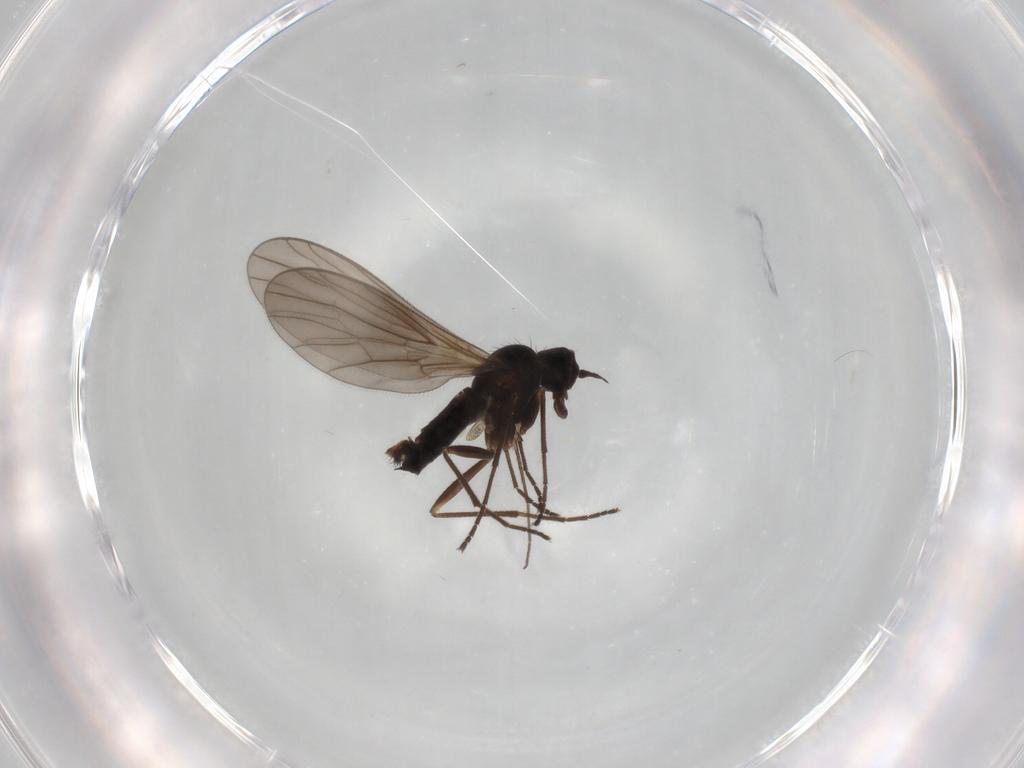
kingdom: Animalia
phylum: Arthropoda
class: Insecta
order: Diptera
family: Empididae
